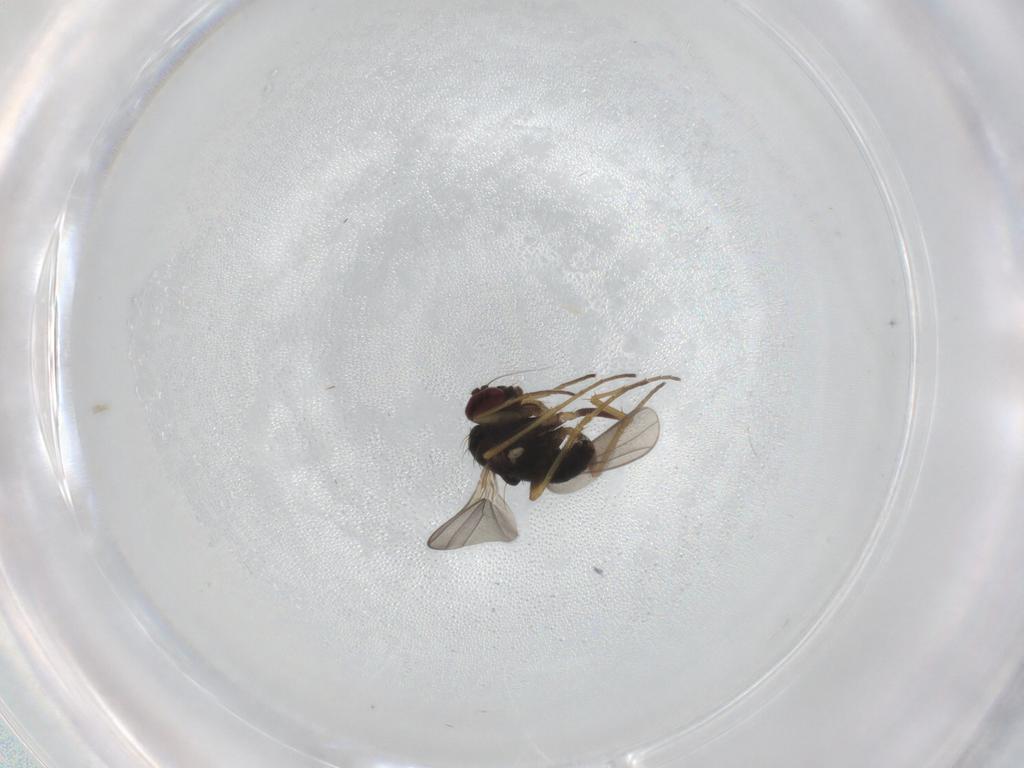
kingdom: Animalia
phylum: Arthropoda
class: Insecta
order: Diptera
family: Dolichopodidae
